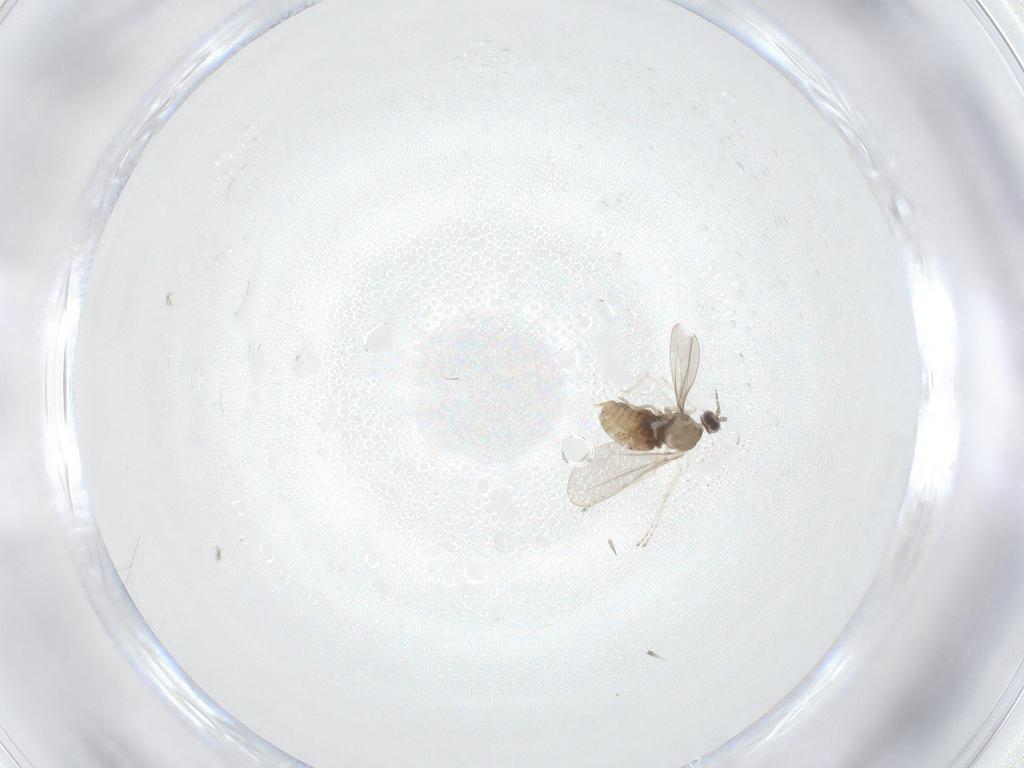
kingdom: Animalia
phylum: Arthropoda
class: Insecta
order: Diptera
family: Cecidomyiidae
